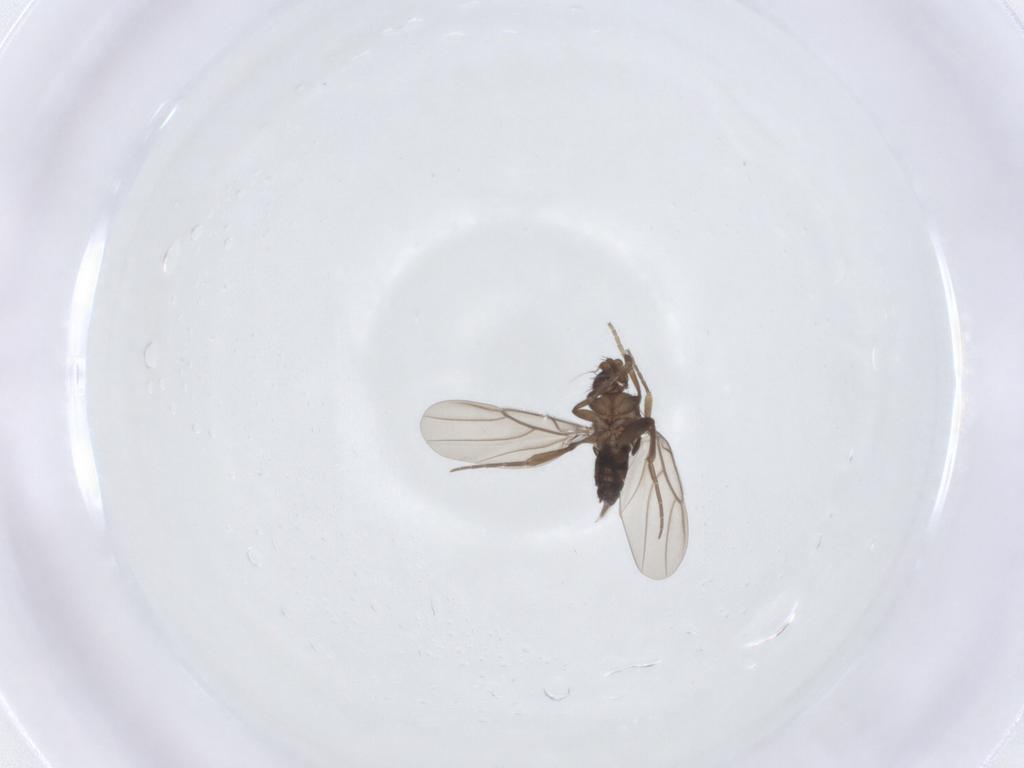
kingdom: Animalia
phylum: Arthropoda
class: Insecta
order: Diptera
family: Phoridae
